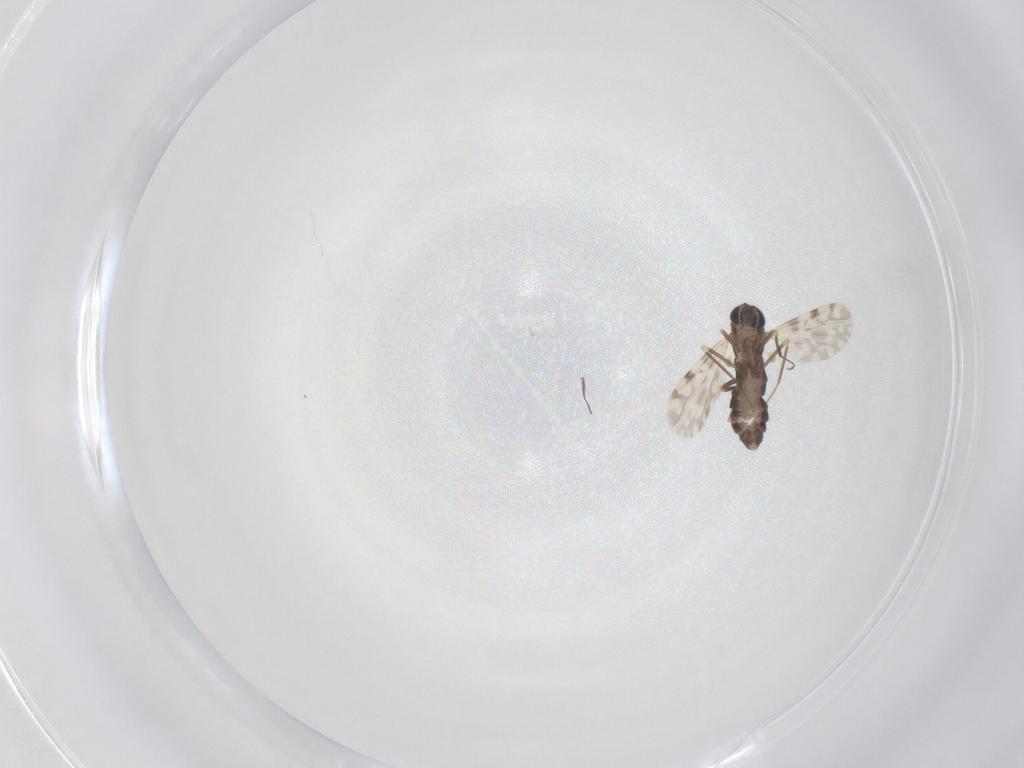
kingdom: Animalia
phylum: Arthropoda
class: Insecta
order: Diptera
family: Ceratopogonidae
